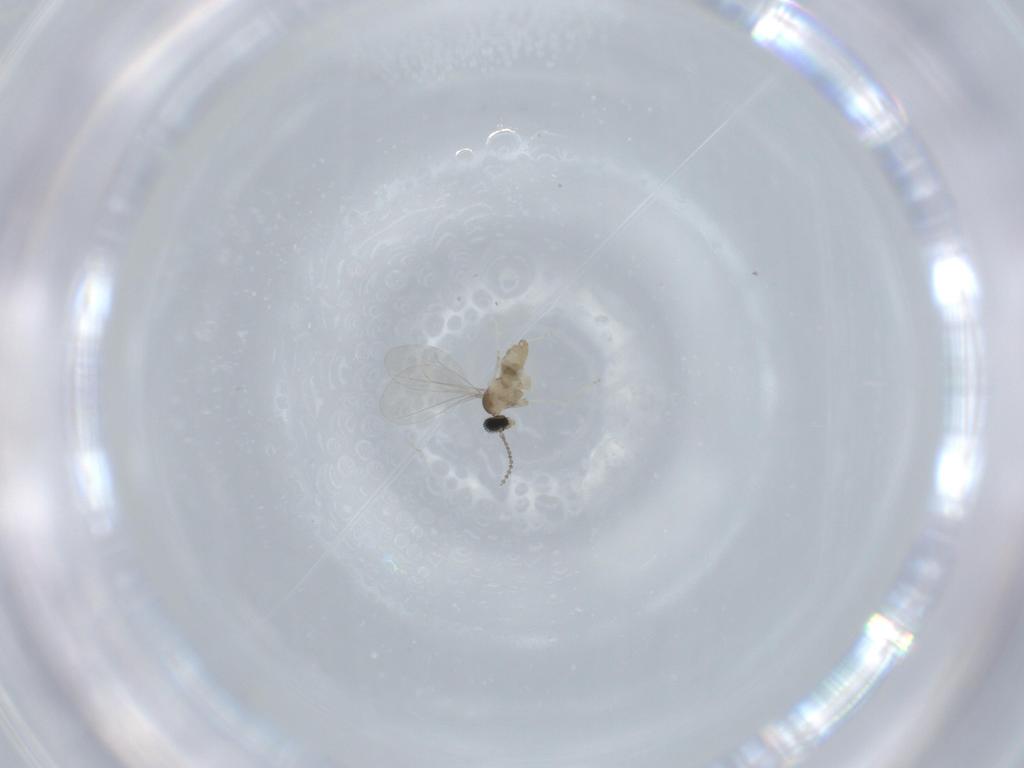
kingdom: Animalia
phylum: Arthropoda
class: Insecta
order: Diptera
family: Cecidomyiidae
